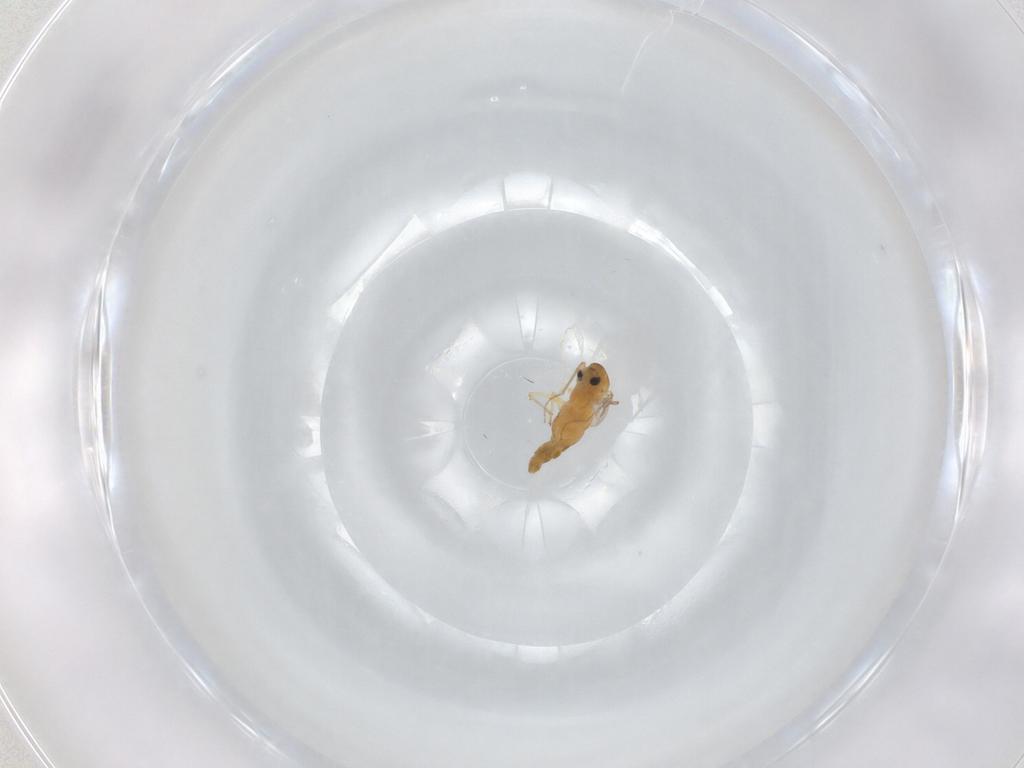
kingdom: Animalia
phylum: Arthropoda
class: Insecta
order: Diptera
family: Chironomidae
